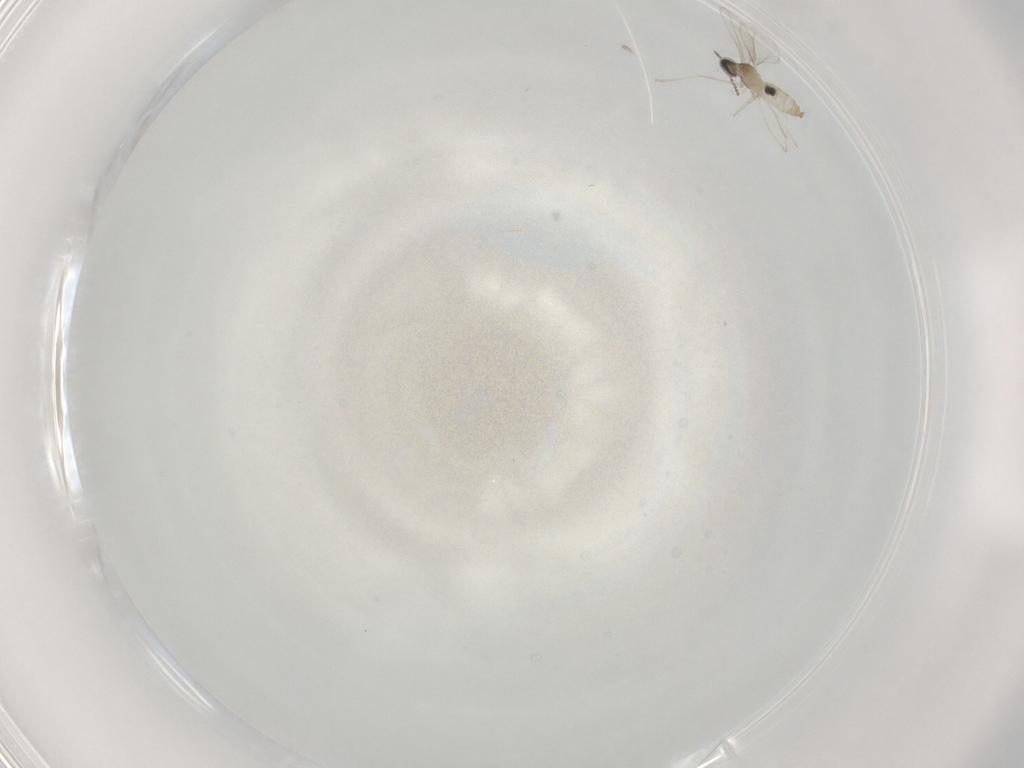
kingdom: Animalia
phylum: Arthropoda
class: Insecta
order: Diptera
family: Cecidomyiidae
